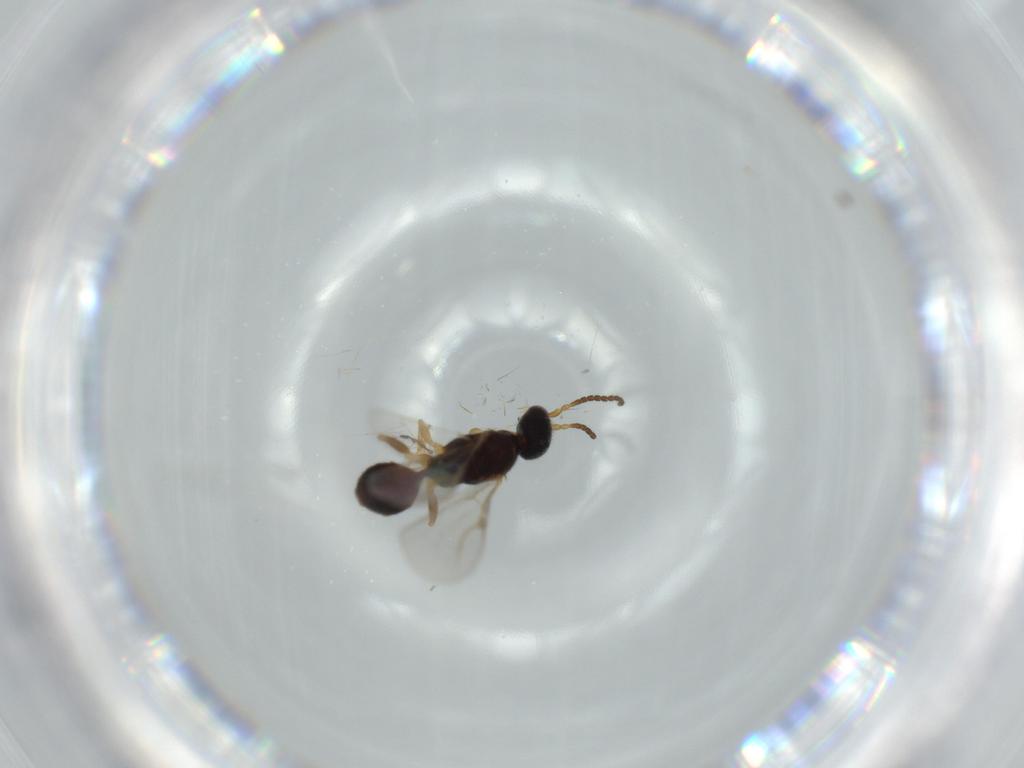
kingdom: Animalia
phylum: Arthropoda
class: Insecta
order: Hymenoptera
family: Bethylidae
